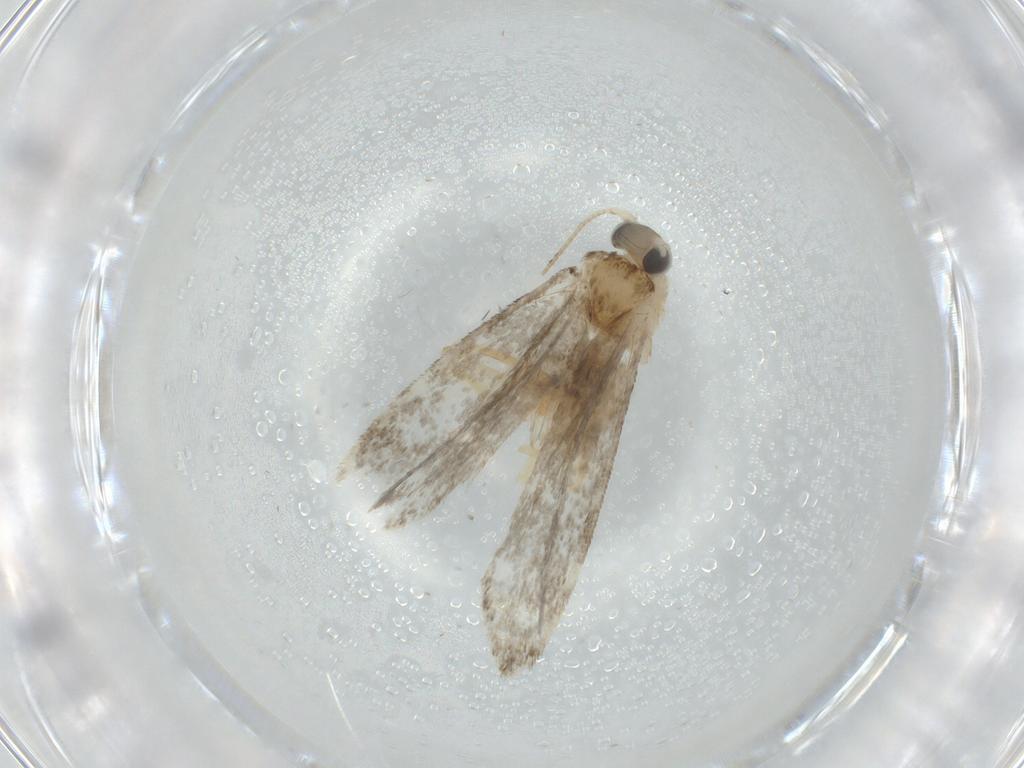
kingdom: Animalia
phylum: Arthropoda
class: Insecta
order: Lepidoptera
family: Tineidae
